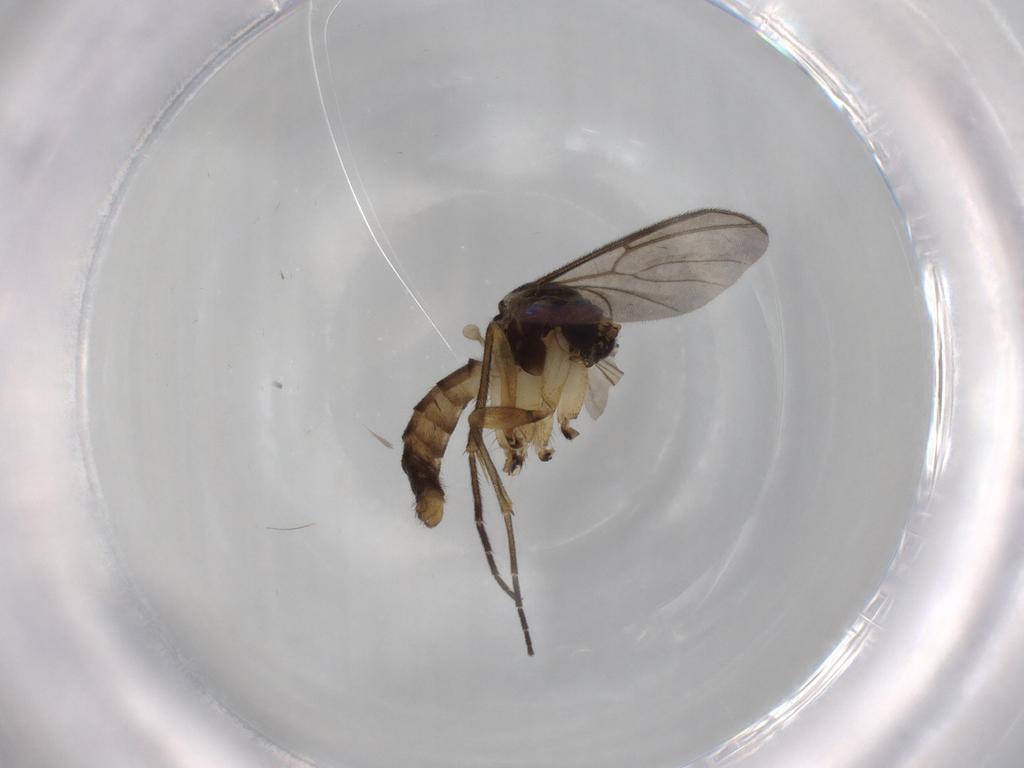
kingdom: Animalia
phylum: Arthropoda
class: Insecta
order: Diptera
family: Mycetophilidae
